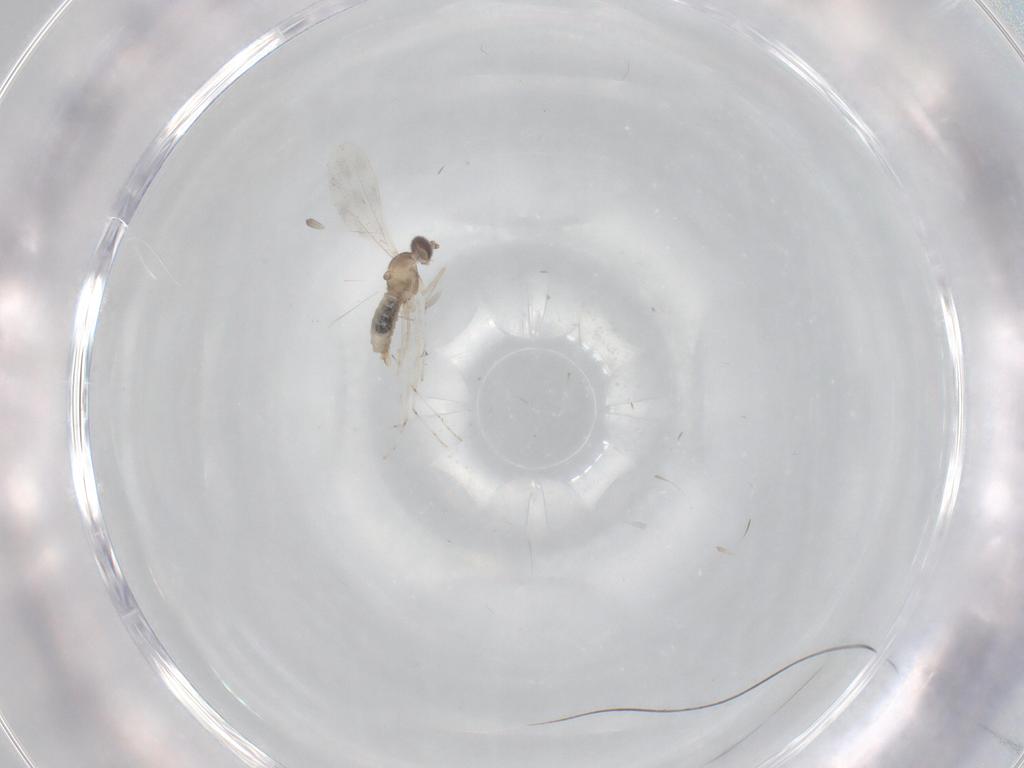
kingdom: Animalia
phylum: Arthropoda
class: Insecta
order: Diptera
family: Cecidomyiidae
